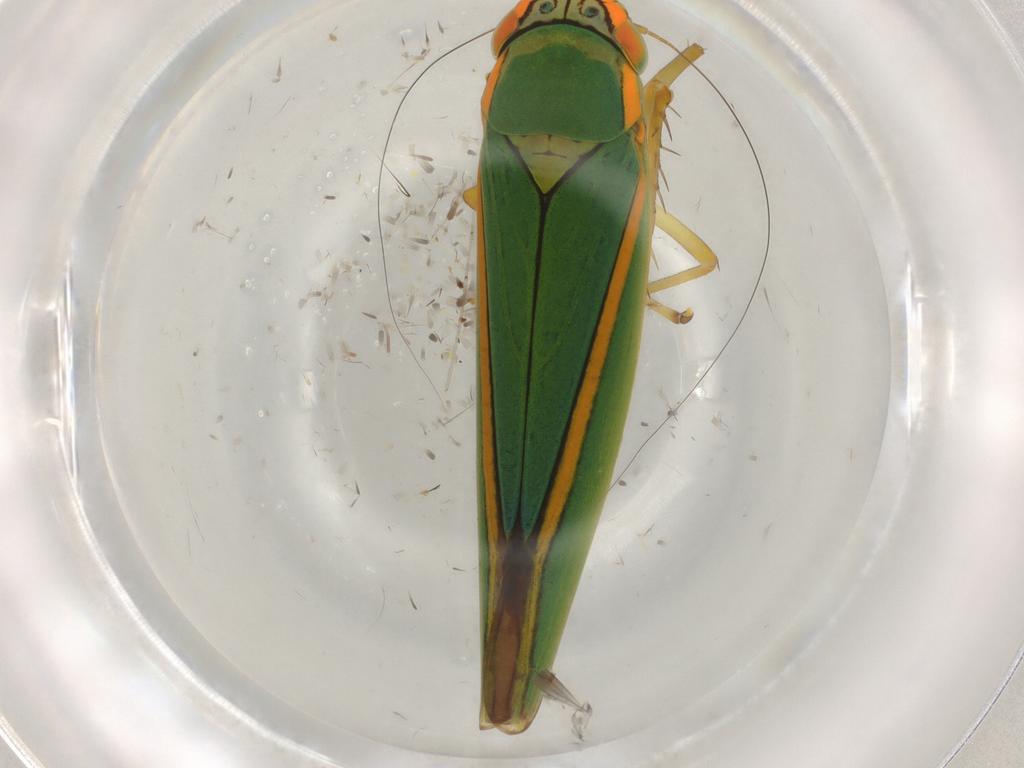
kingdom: Animalia
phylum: Arthropoda
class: Insecta
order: Hemiptera
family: Cicadellidae
